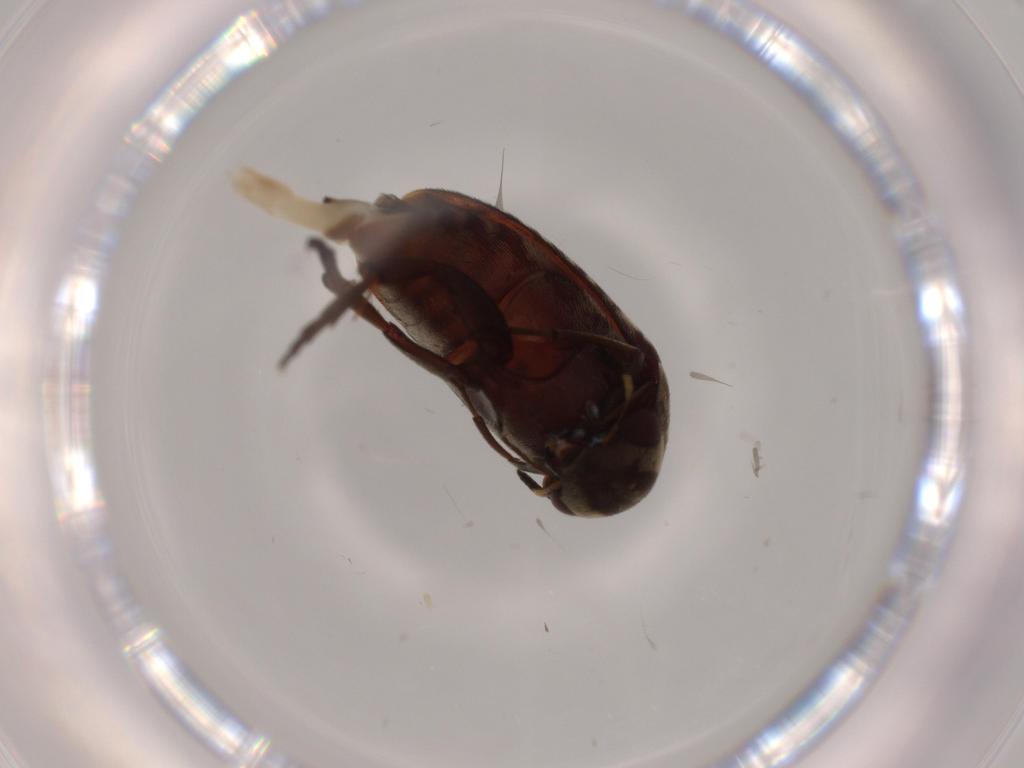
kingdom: Animalia
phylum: Arthropoda
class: Insecta
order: Coleoptera
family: Chrysomelidae
